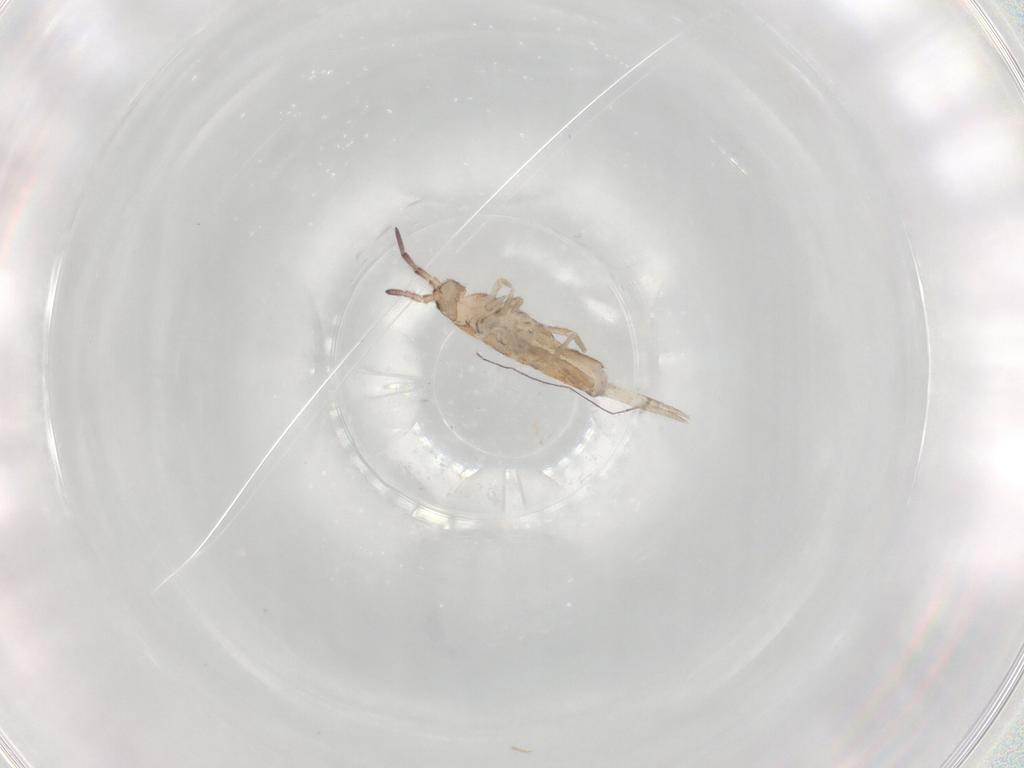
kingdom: Animalia
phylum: Arthropoda
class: Collembola
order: Entomobryomorpha
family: Entomobryidae
